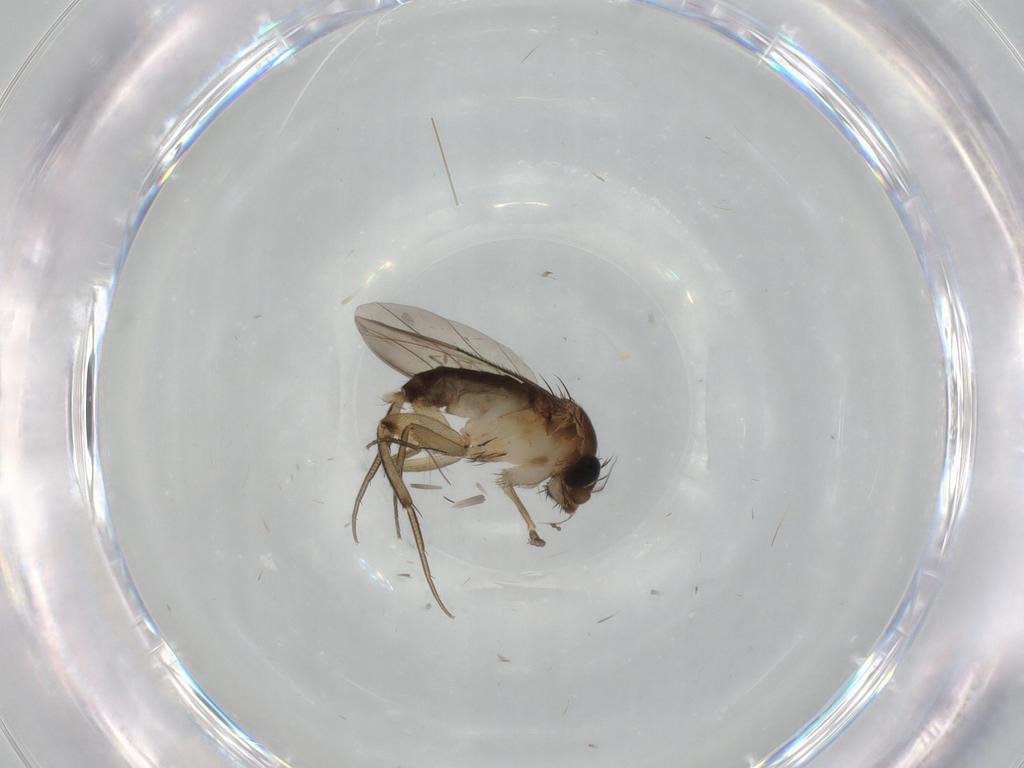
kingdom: Animalia
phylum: Arthropoda
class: Insecta
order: Diptera
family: Phoridae
